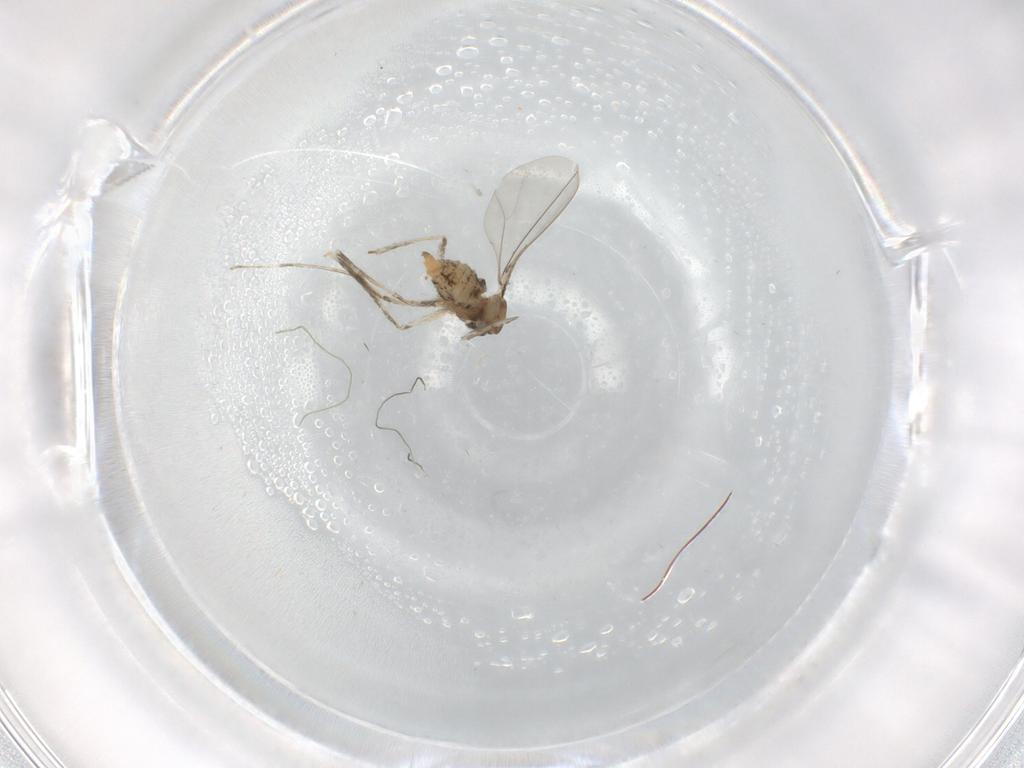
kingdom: Animalia
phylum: Arthropoda
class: Insecta
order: Diptera
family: Cecidomyiidae
